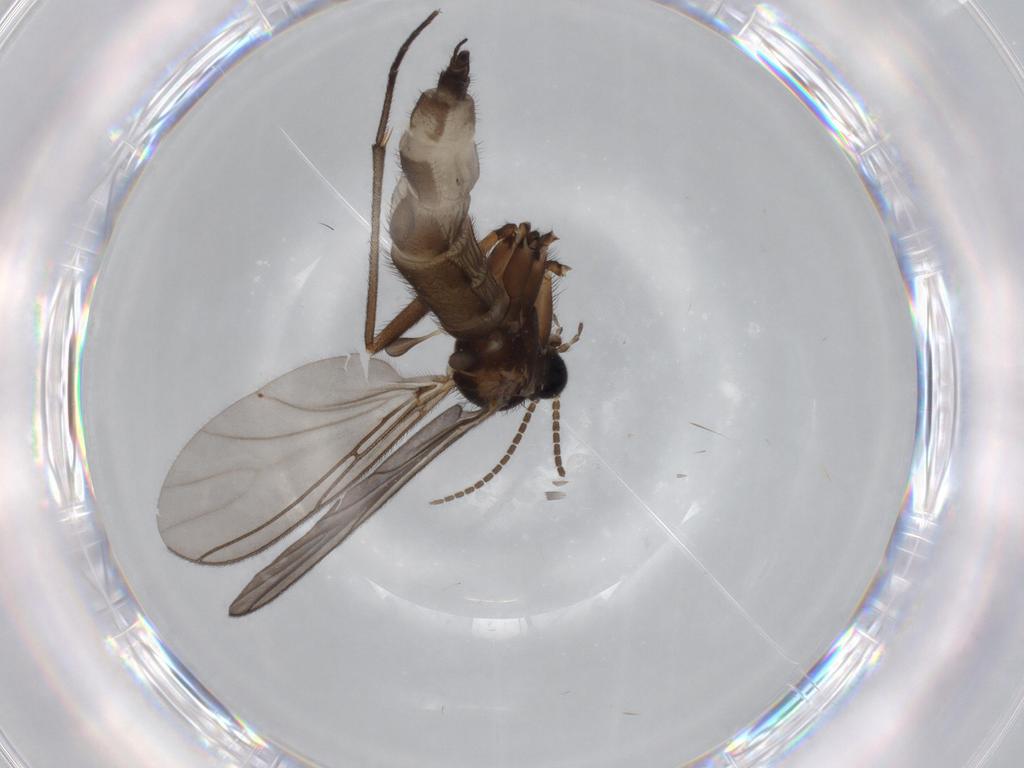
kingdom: Animalia
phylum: Arthropoda
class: Insecta
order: Diptera
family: Sciaridae
